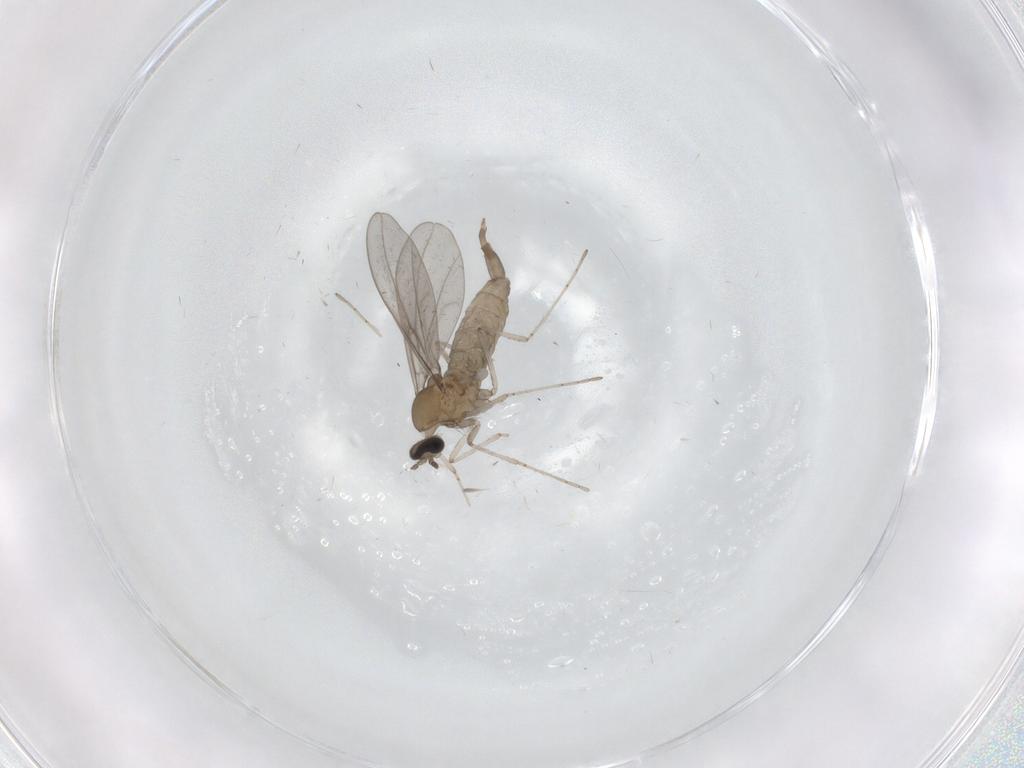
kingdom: Animalia
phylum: Arthropoda
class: Insecta
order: Diptera
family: Cecidomyiidae
